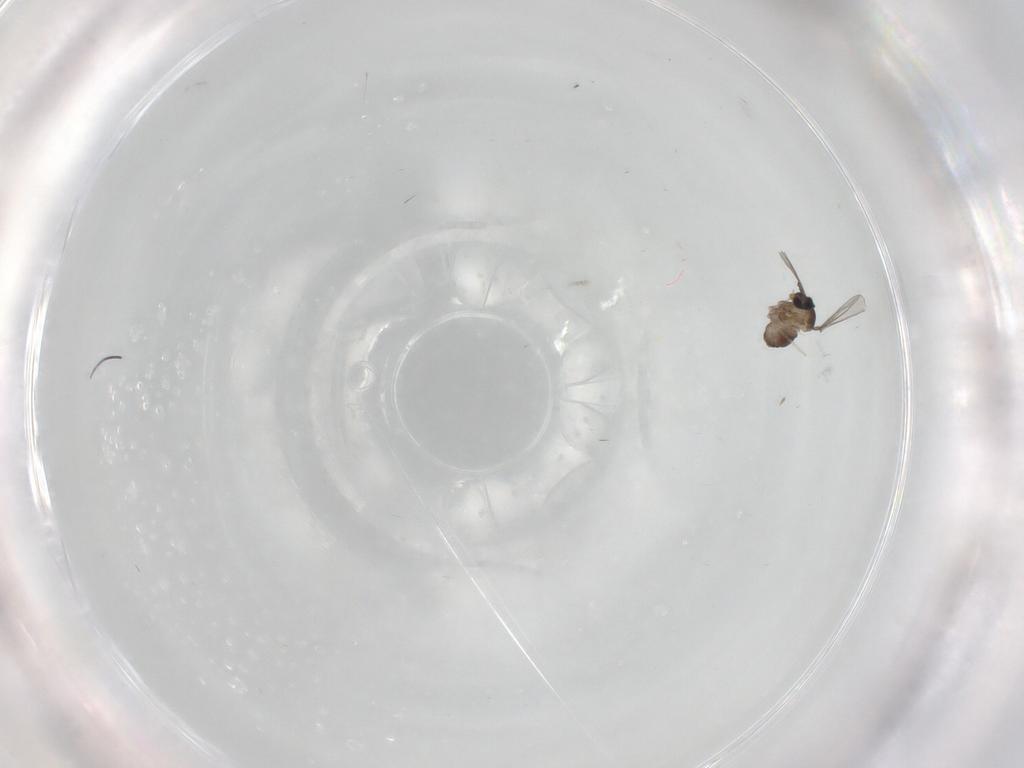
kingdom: Animalia
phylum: Arthropoda
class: Insecta
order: Diptera
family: Cecidomyiidae
